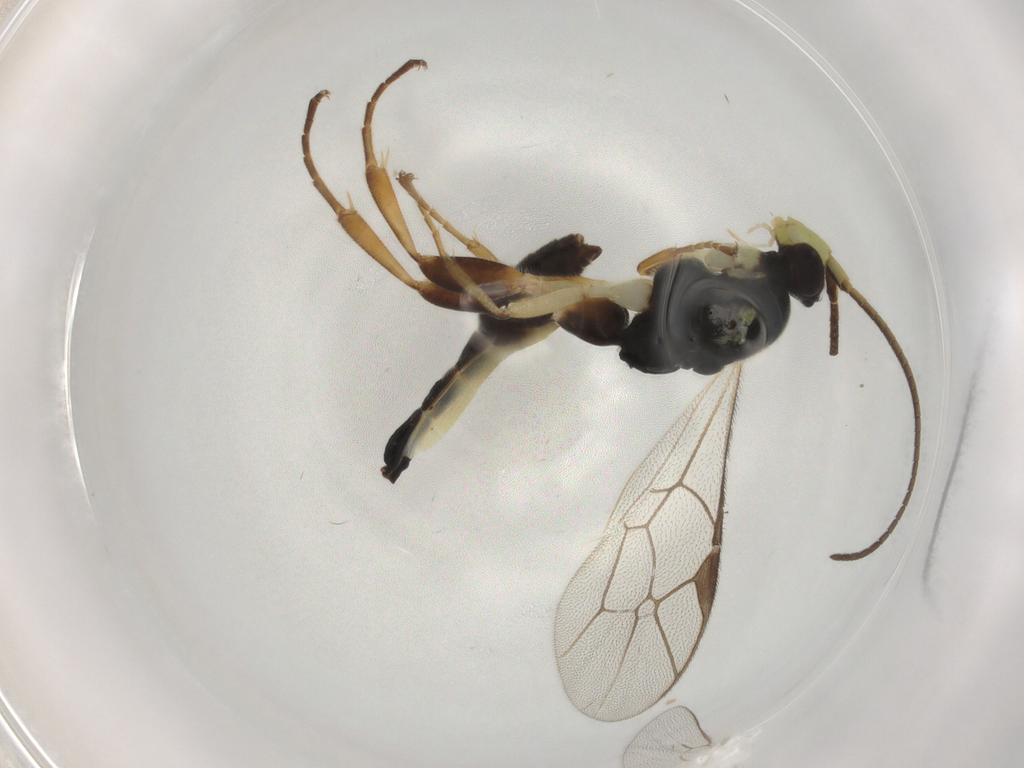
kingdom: Animalia
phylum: Arthropoda
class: Insecta
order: Hymenoptera
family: Ichneumonidae
